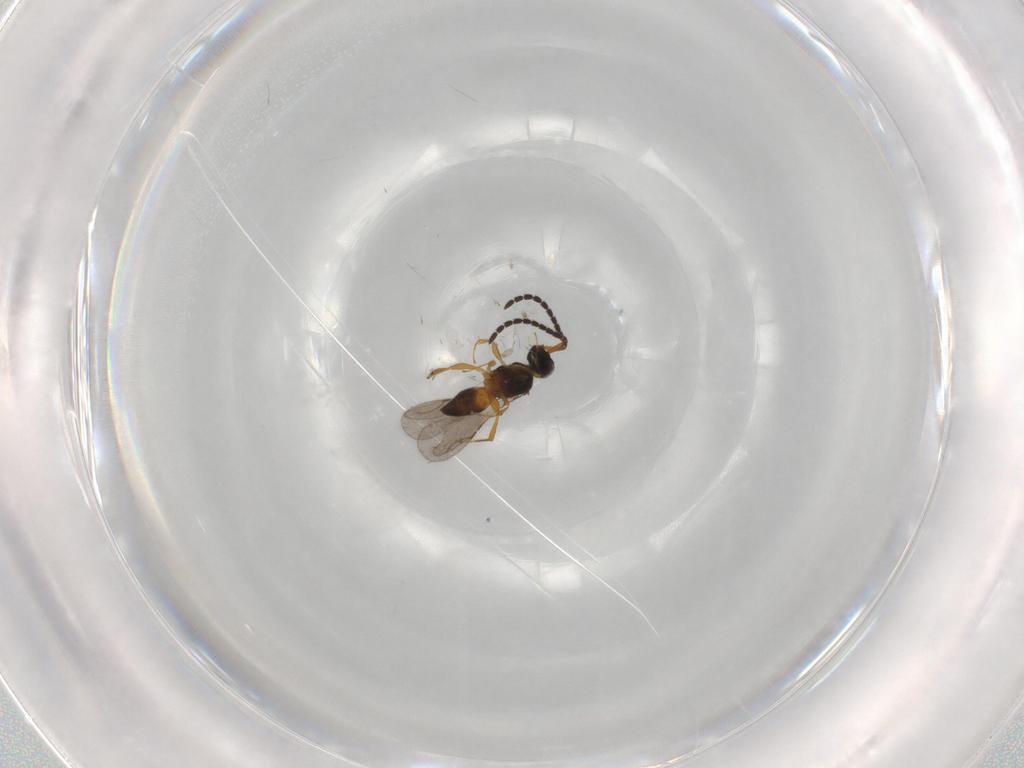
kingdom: Animalia
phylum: Arthropoda
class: Insecta
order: Hymenoptera
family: Ceraphronidae
